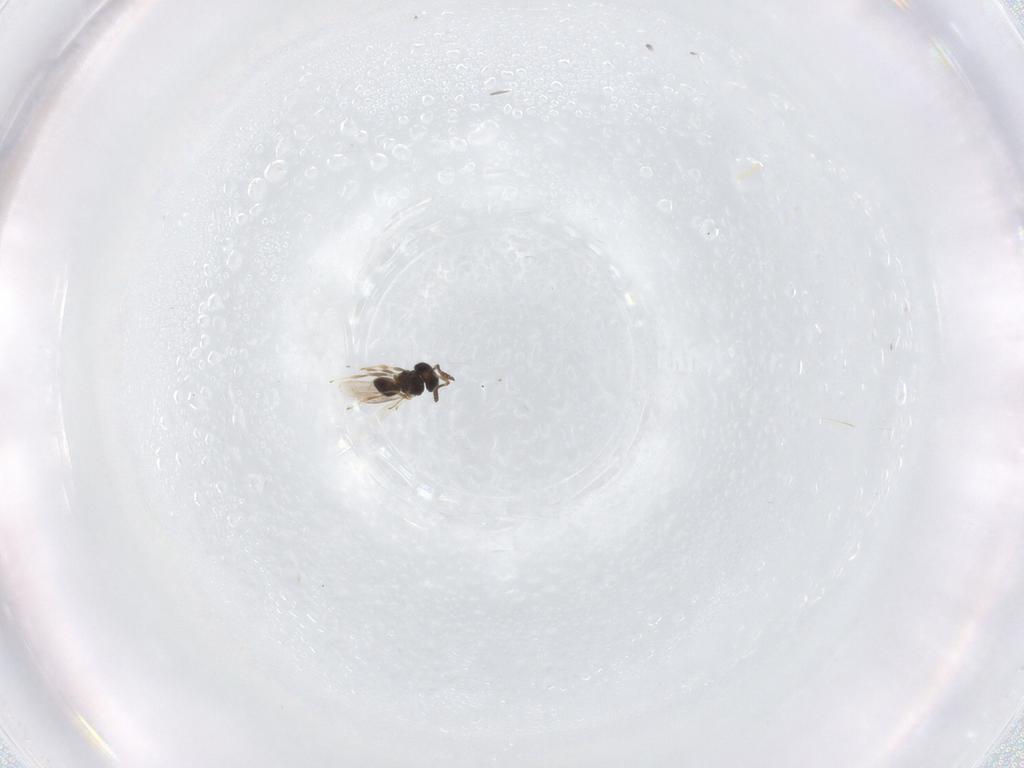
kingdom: Animalia
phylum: Arthropoda
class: Insecta
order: Hymenoptera
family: Scelionidae
